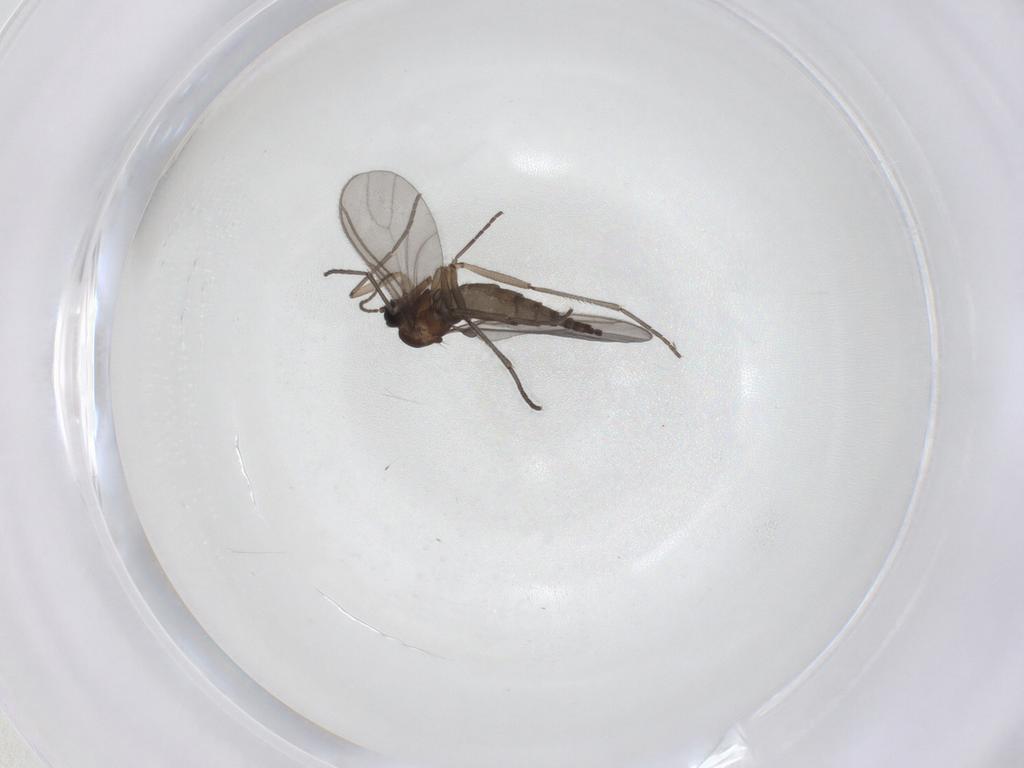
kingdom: Animalia
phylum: Arthropoda
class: Insecta
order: Diptera
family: Sciaridae
